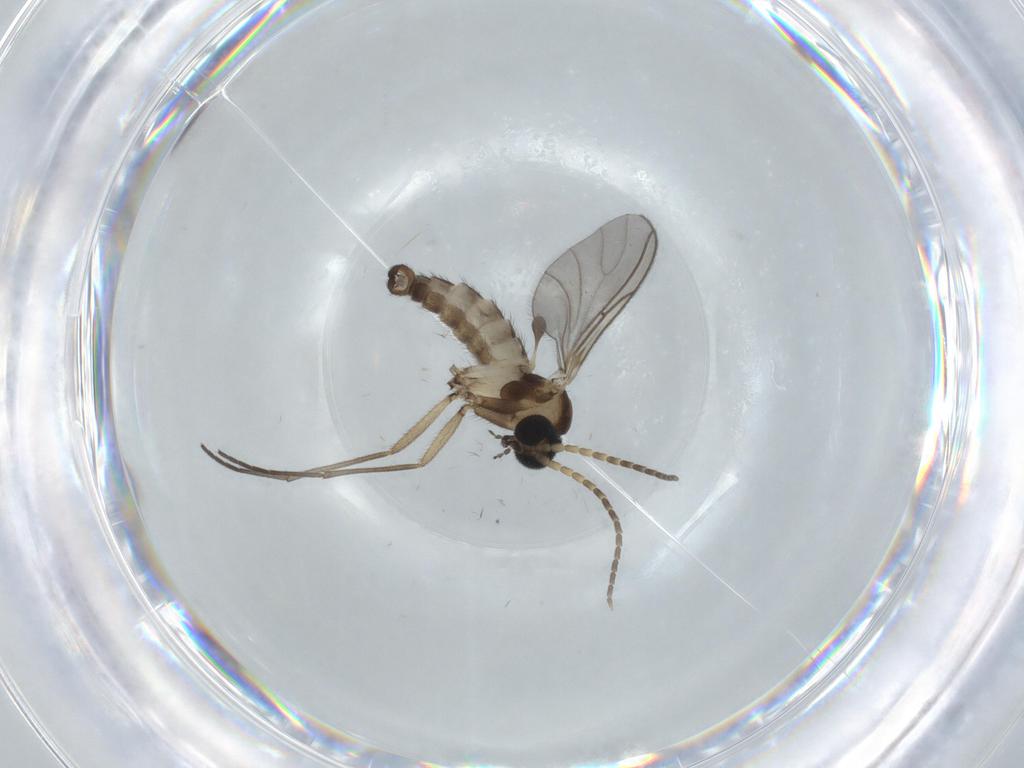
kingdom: Animalia
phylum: Arthropoda
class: Insecta
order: Diptera
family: Sciaridae
